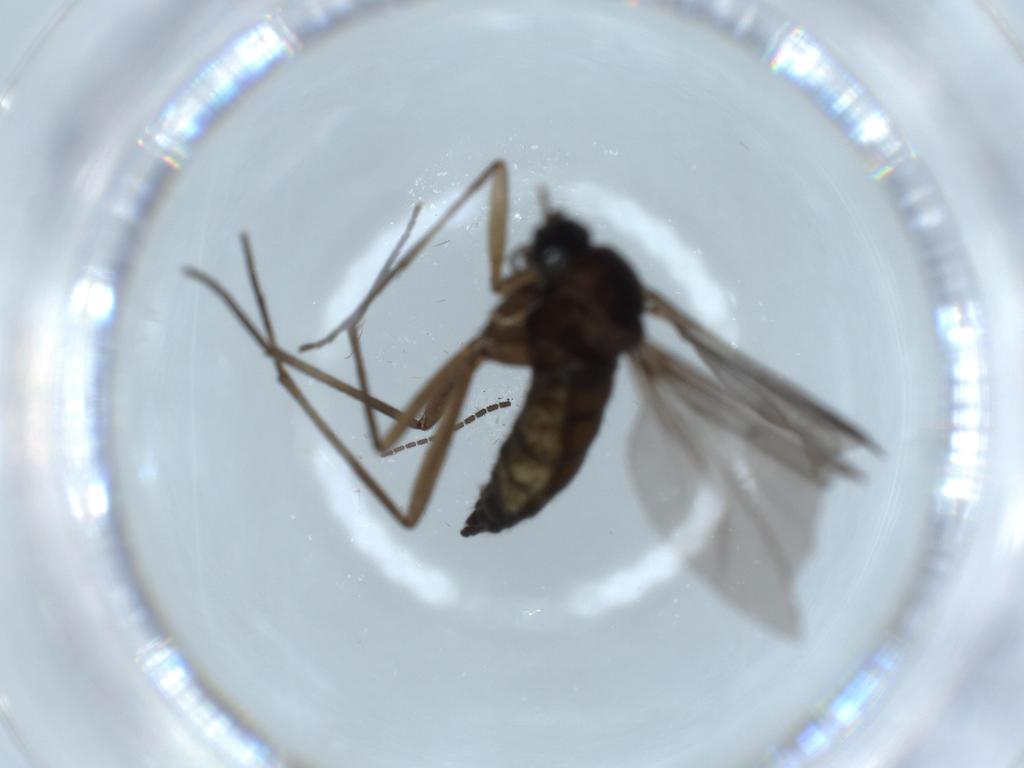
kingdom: Animalia
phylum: Arthropoda
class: Insecta
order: Diptera
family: Sciaridae
